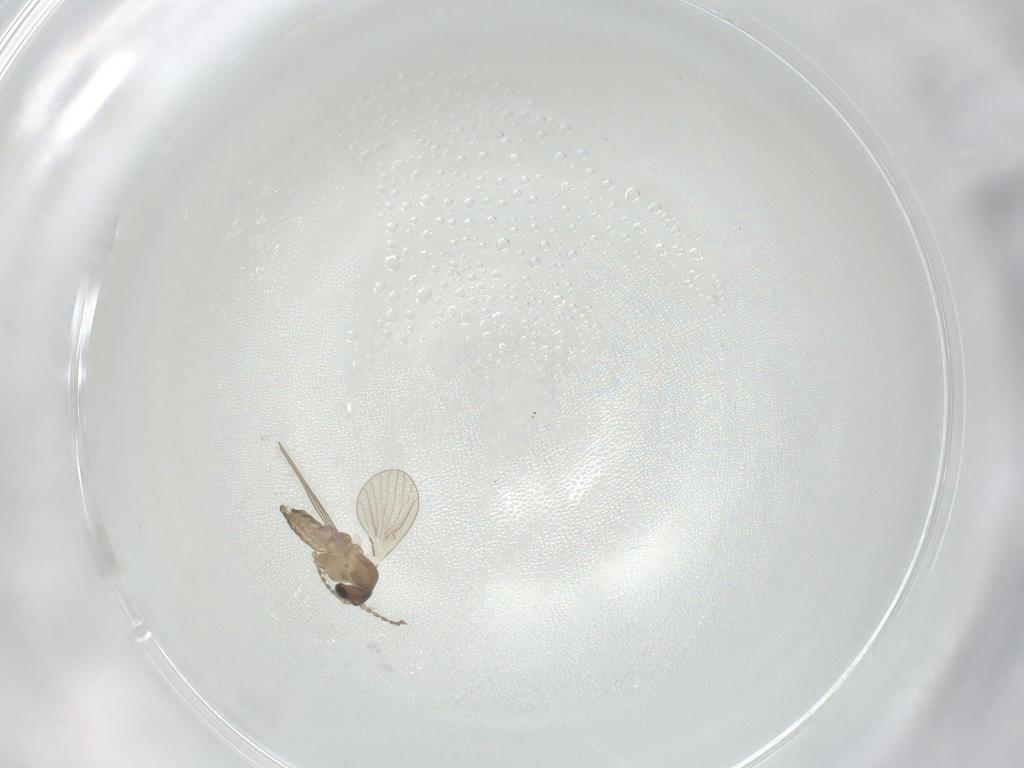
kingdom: Animalia
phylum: Arthropoda
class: Insecta
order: Diptera
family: Psychodidae
